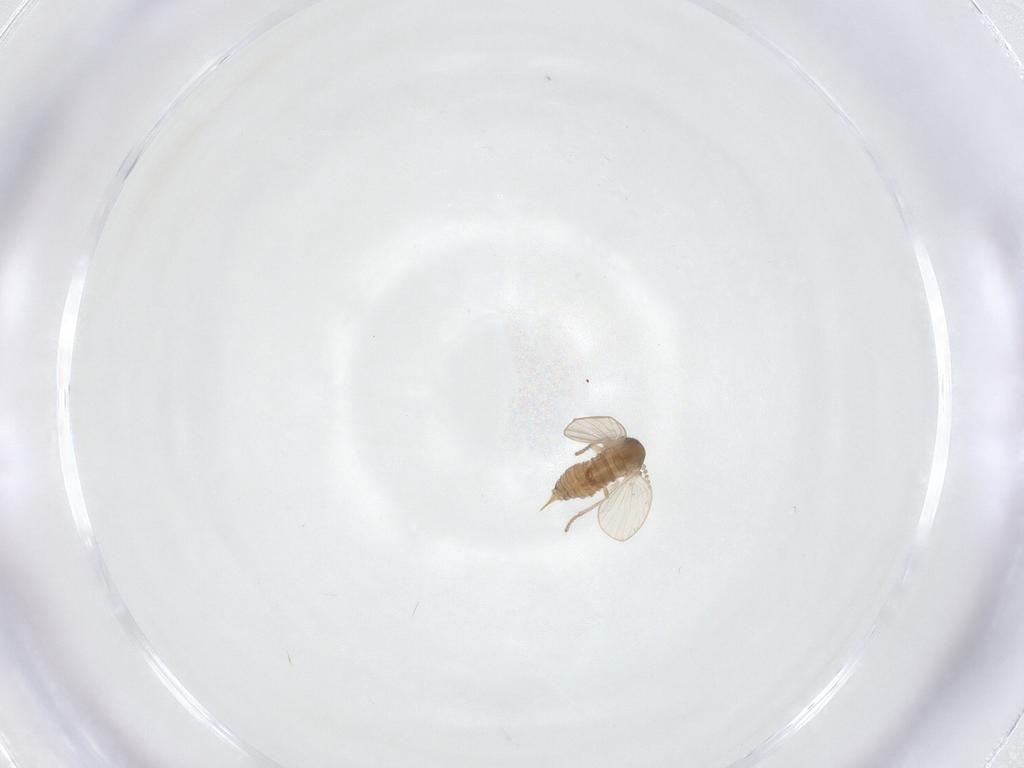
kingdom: Animalia
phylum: Arthropoda
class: Insecta
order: Diptera
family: Psychodidae
